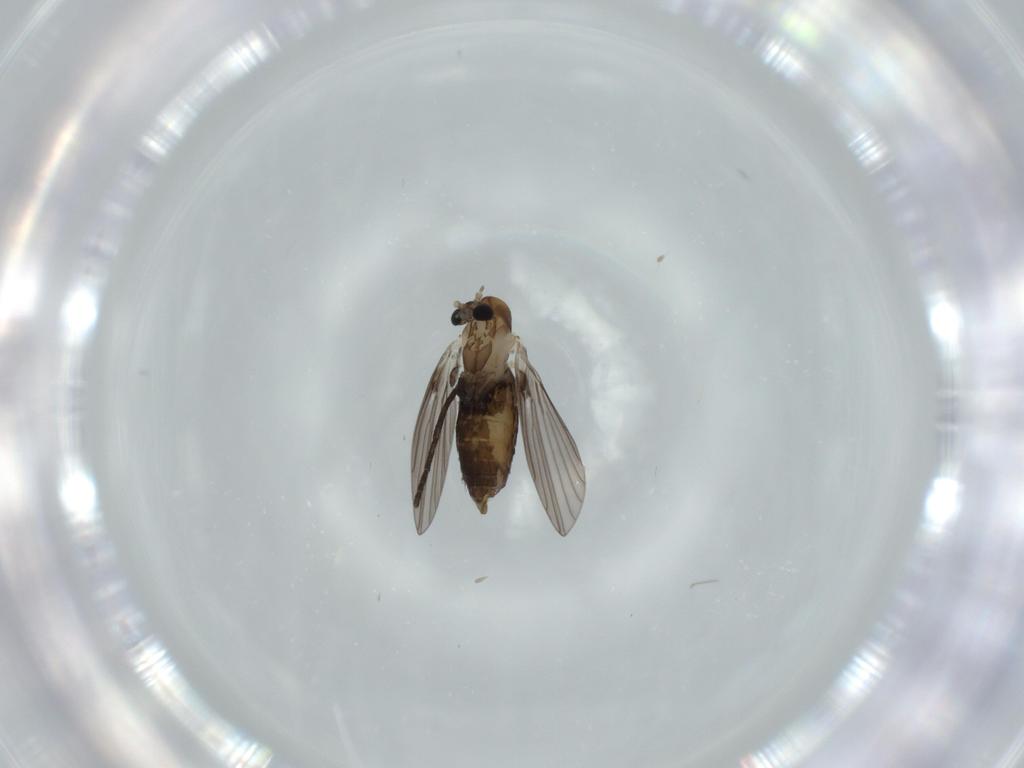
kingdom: Animalia
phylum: Arthropoda
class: Insecta
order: Diptera
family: Psychodidae
